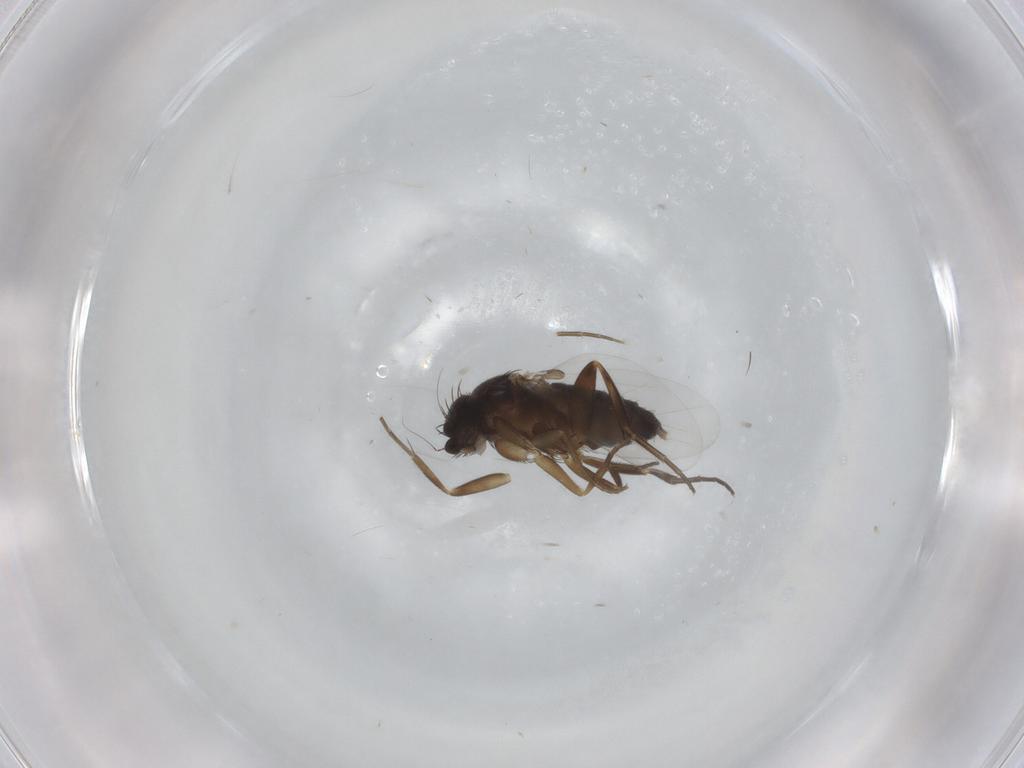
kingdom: Animalia
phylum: Arthropoda
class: Insecta
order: Diptera
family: Phoridae
